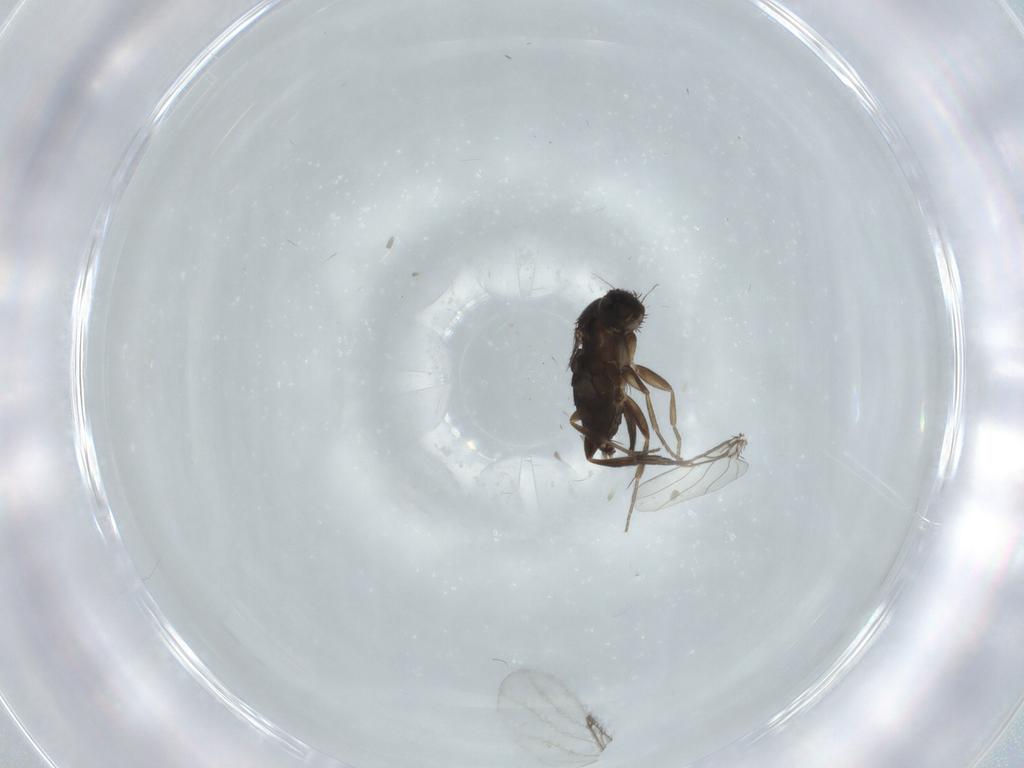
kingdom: Animalia
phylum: Arthropoda
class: Insecta
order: Diptera
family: Phoridae
